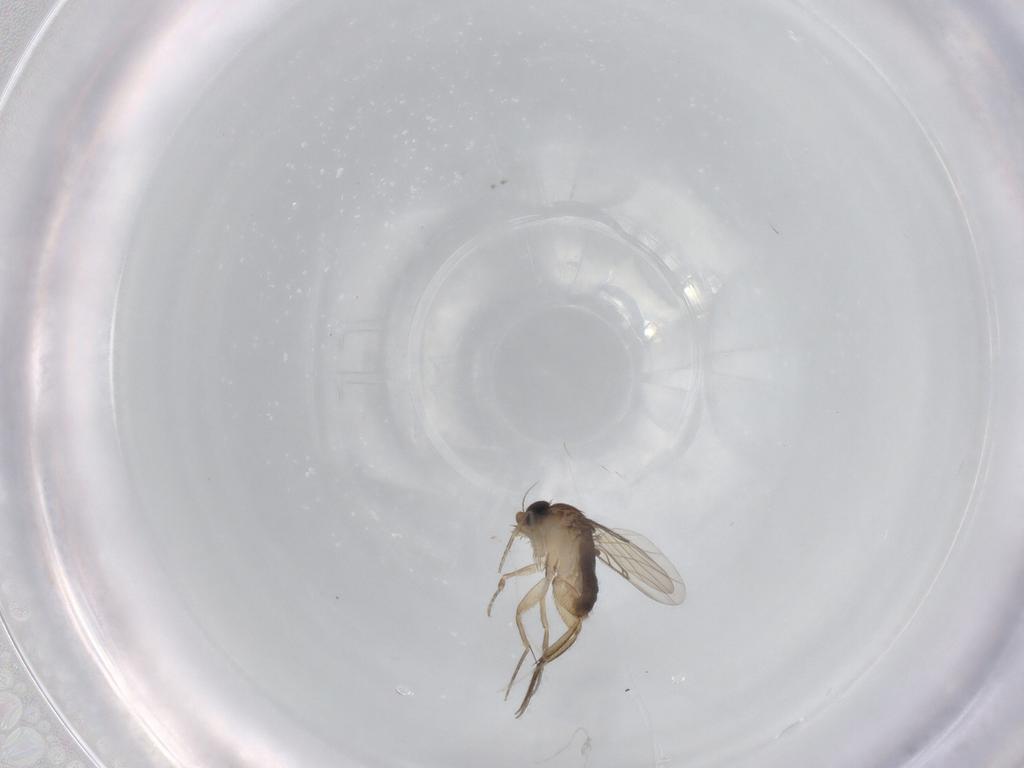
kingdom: Animalia
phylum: Arthropoda
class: Insecta
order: Diptera
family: Phoridae
